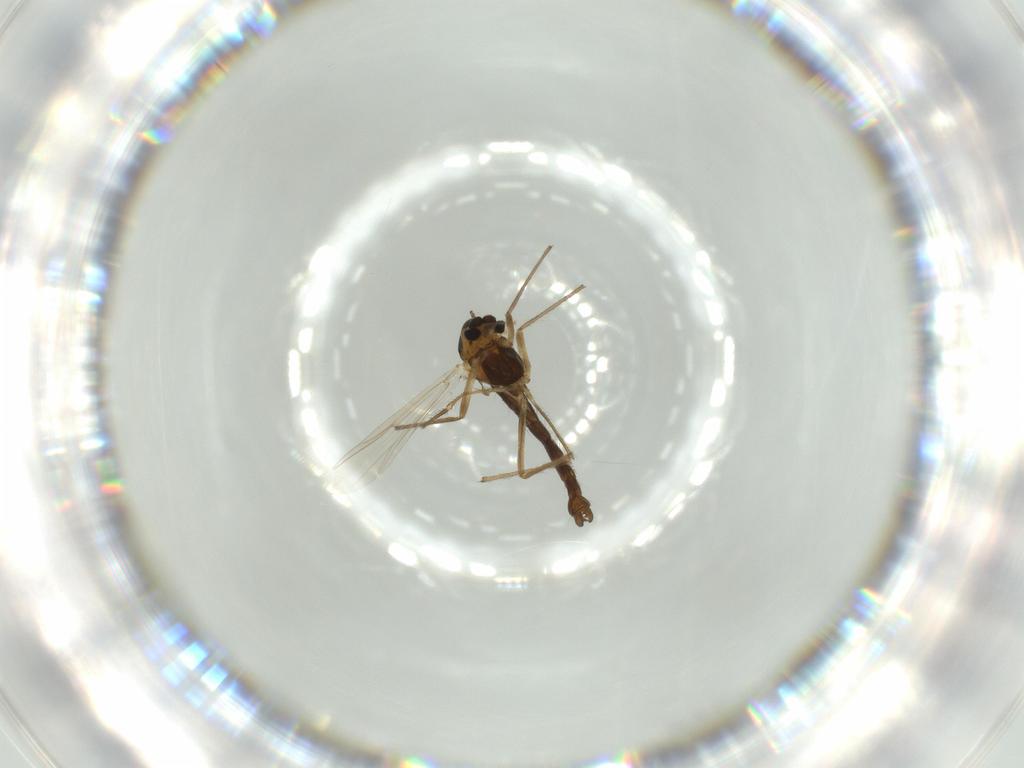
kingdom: Animalia
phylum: Arthropoda
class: Insecta
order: Diptera
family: Chironomidae
